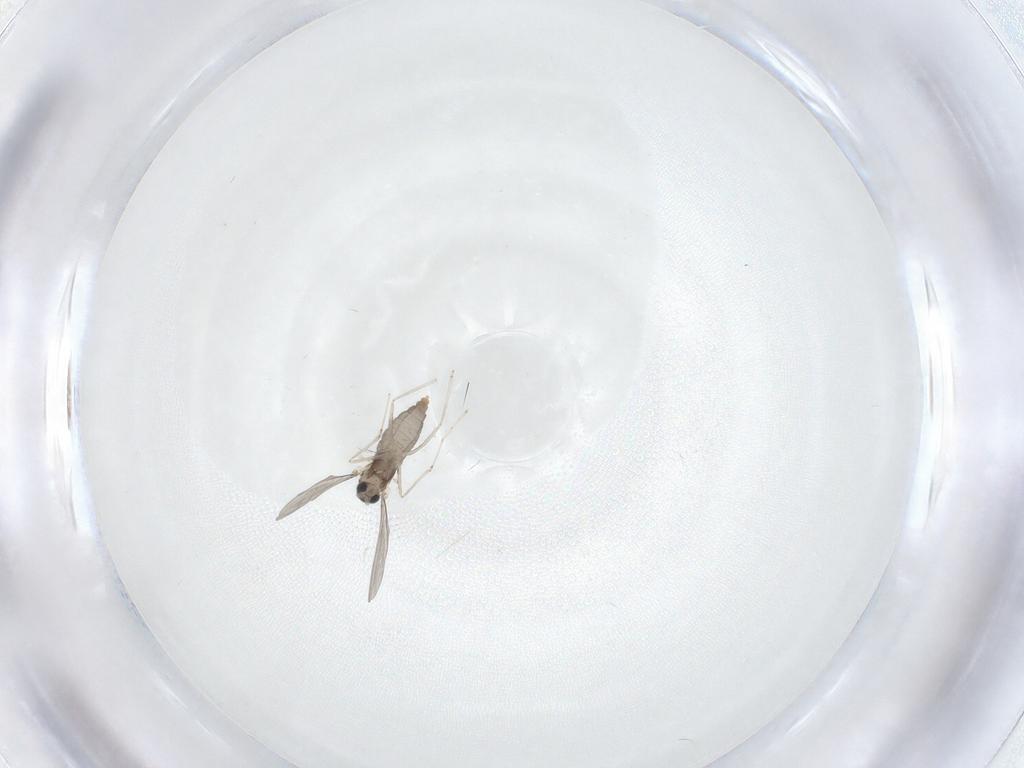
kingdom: Animalia
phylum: Arthropoda
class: Insecta
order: Diptera
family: Cecidomyiidae
